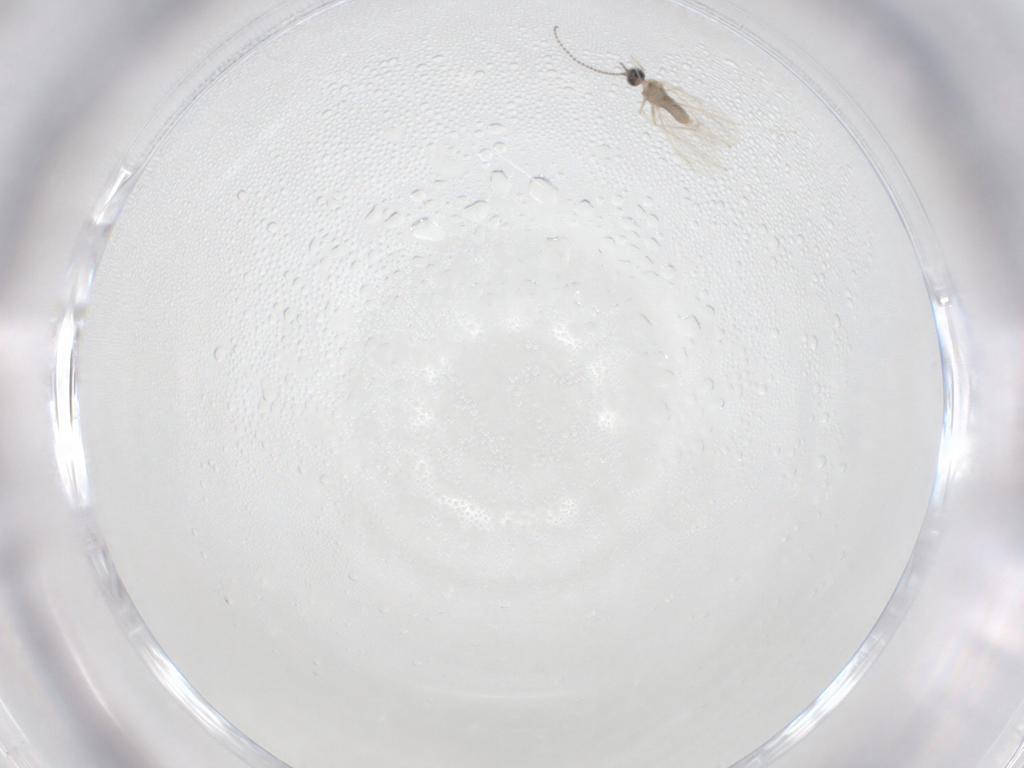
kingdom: Animalia
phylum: Arthropoda
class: Insecta
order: Diptera
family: Cecidomyiidae
